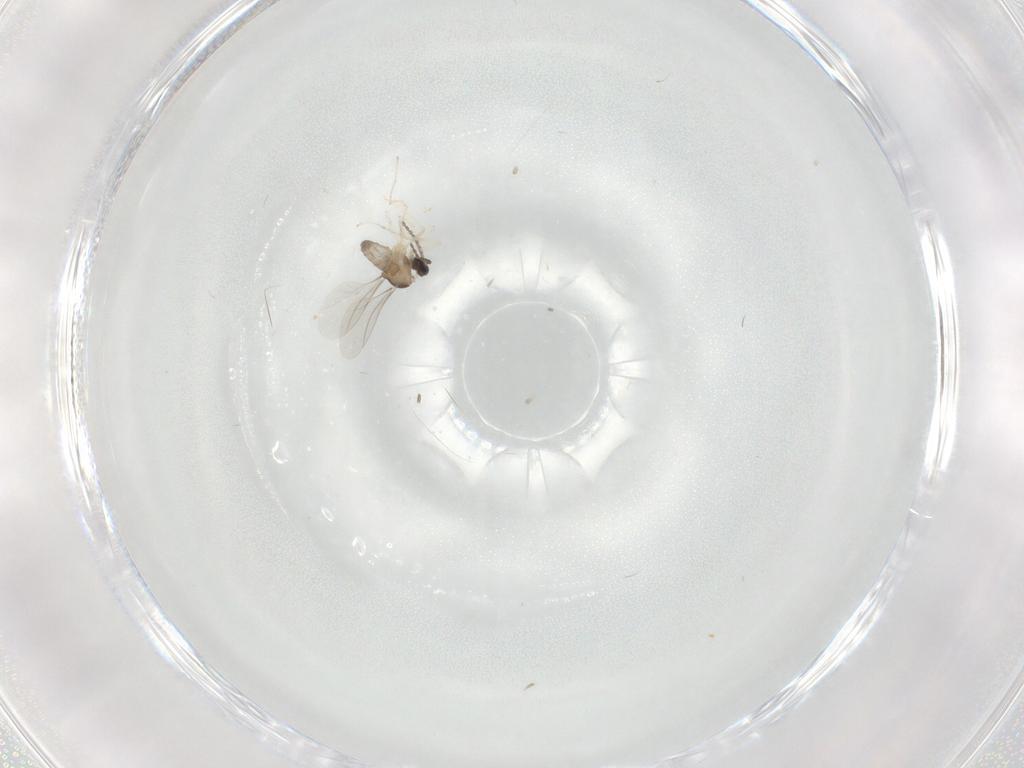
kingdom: Animalia
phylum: Arthropoda
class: Insecta
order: Diptera
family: Cecidomyiidae
